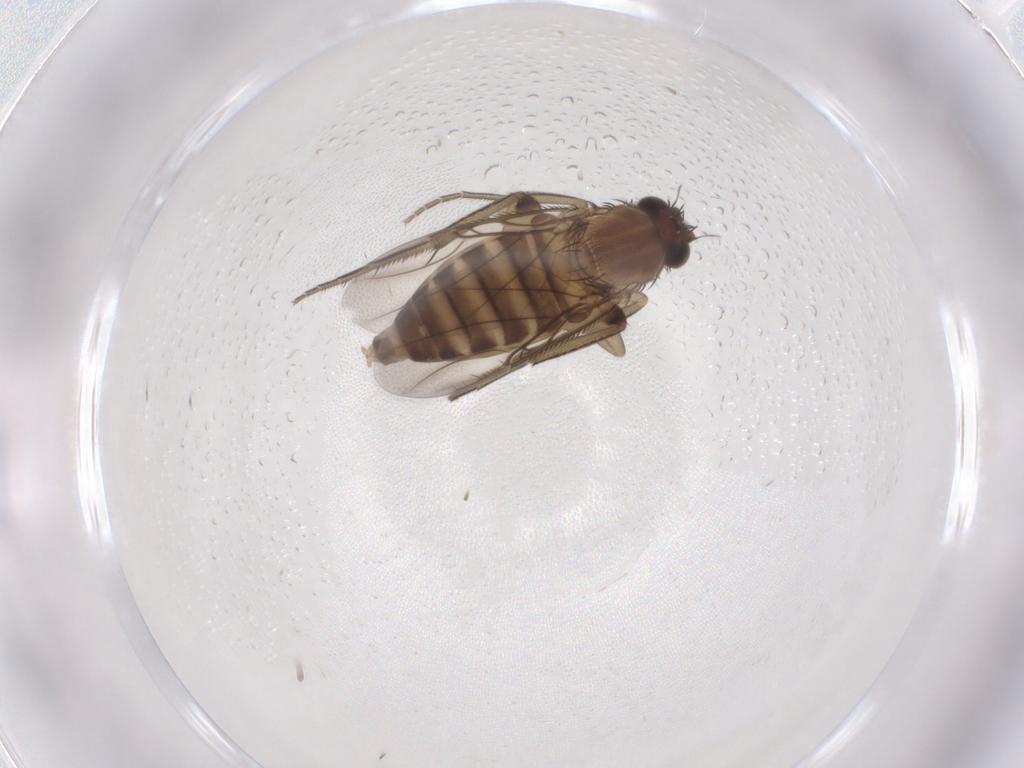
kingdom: Animalia
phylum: Arthropoda
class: Insecta
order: Diptera
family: Phoridae
